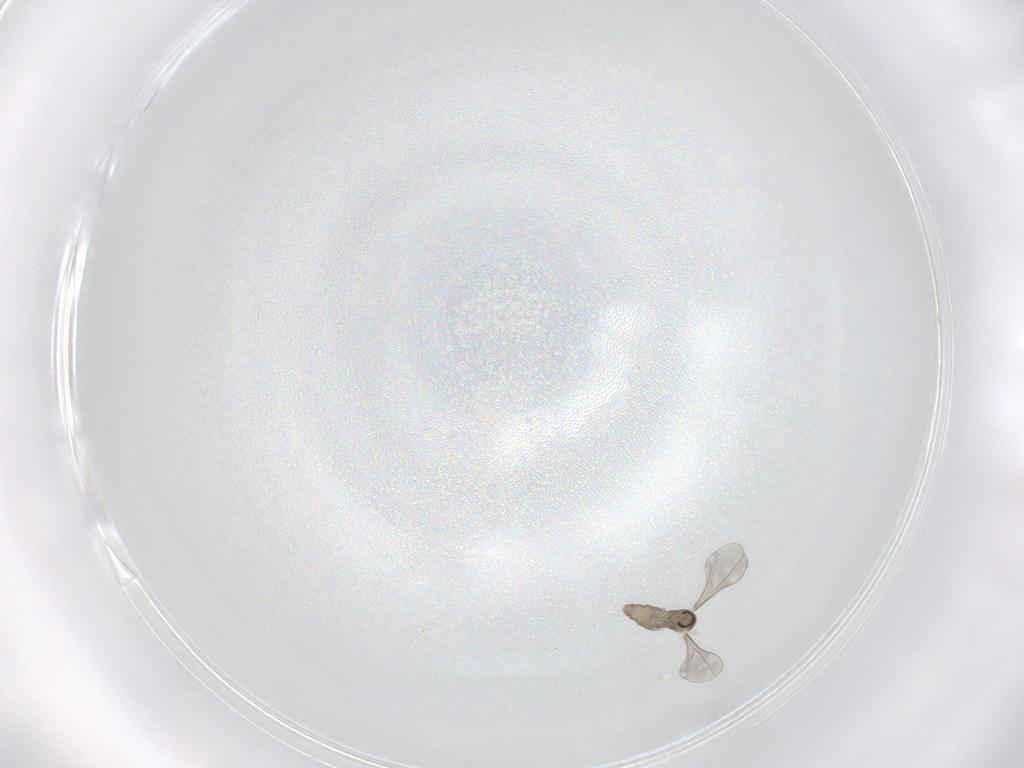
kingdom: Animalia
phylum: Arthropoda
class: Insecta
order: Diptera
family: Cecidomyiidae
